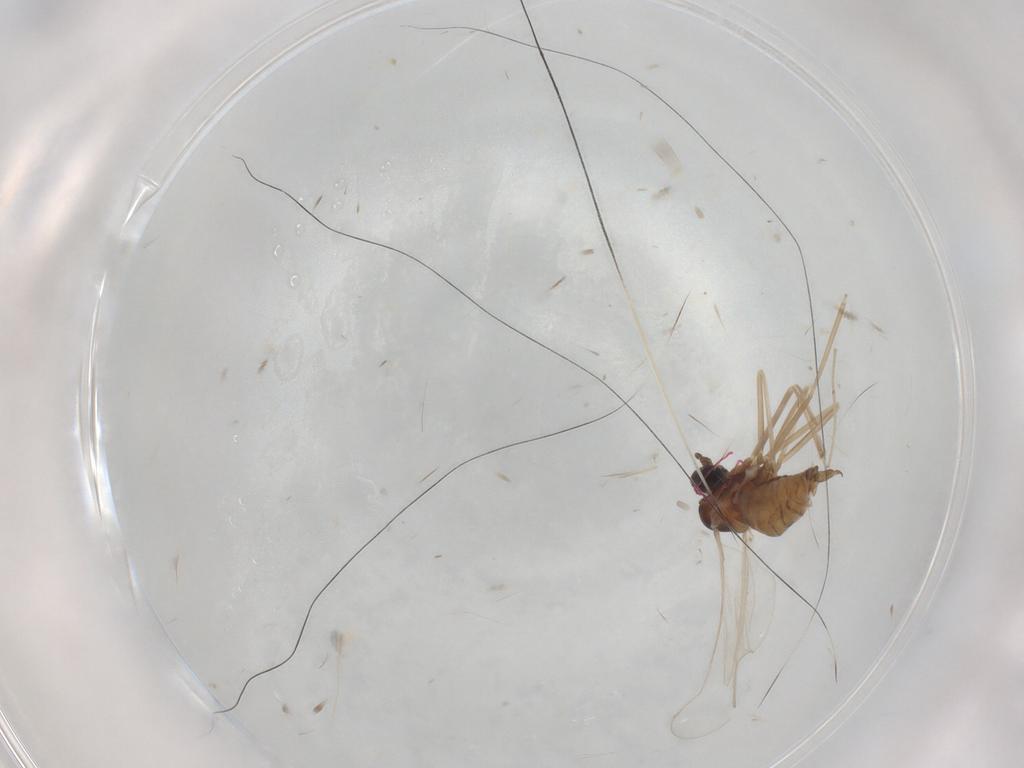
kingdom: Animalia
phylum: Arthropoda
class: Insecta
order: Diptera
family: Cecidomyiidae
